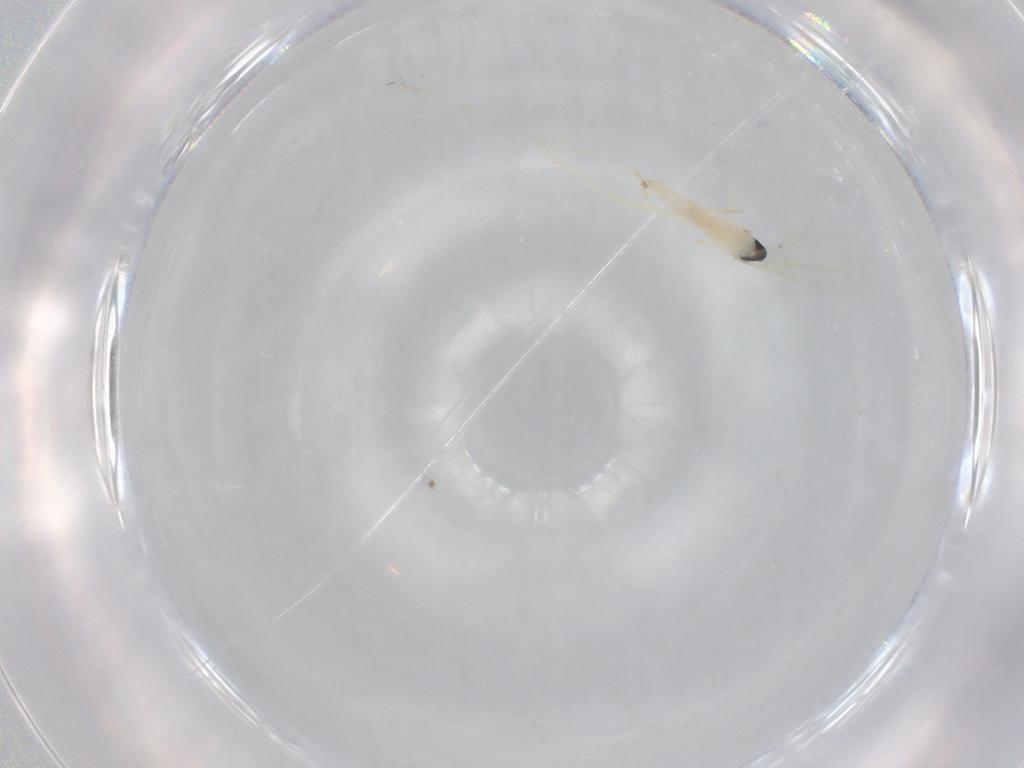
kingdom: Animalia
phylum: Arthropoda
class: Insecta
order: Diptera
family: Cecidomyiidae
